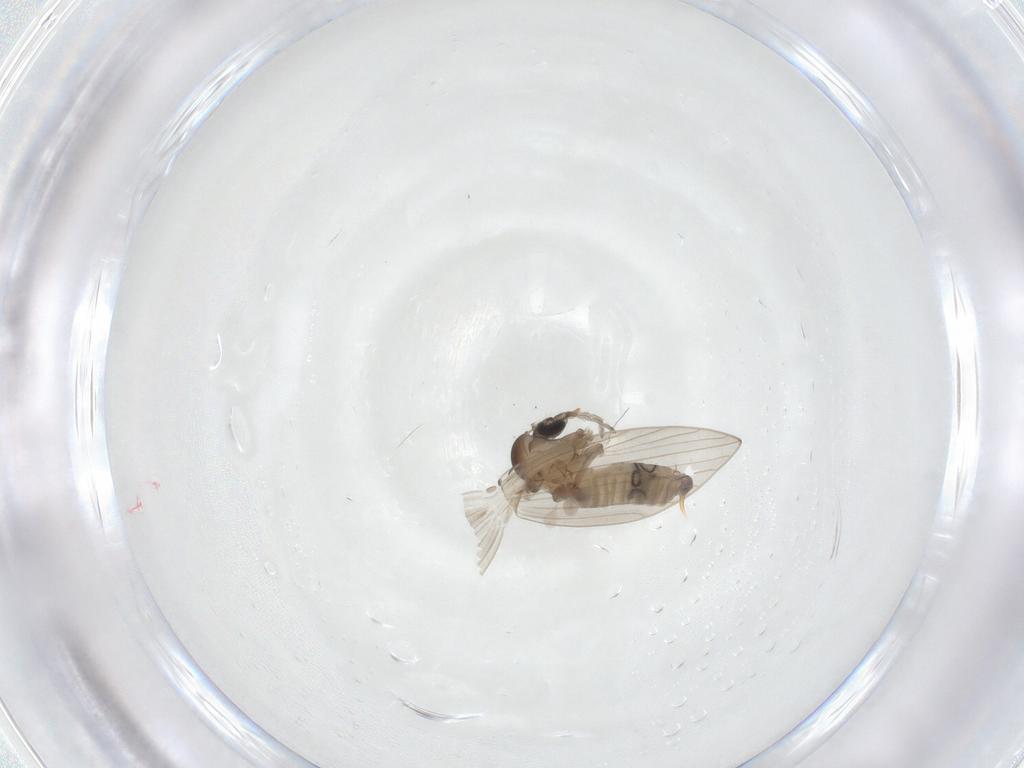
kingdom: Animalia
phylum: Arthropoda
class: Insecta
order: Diptera
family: Psychodidae
